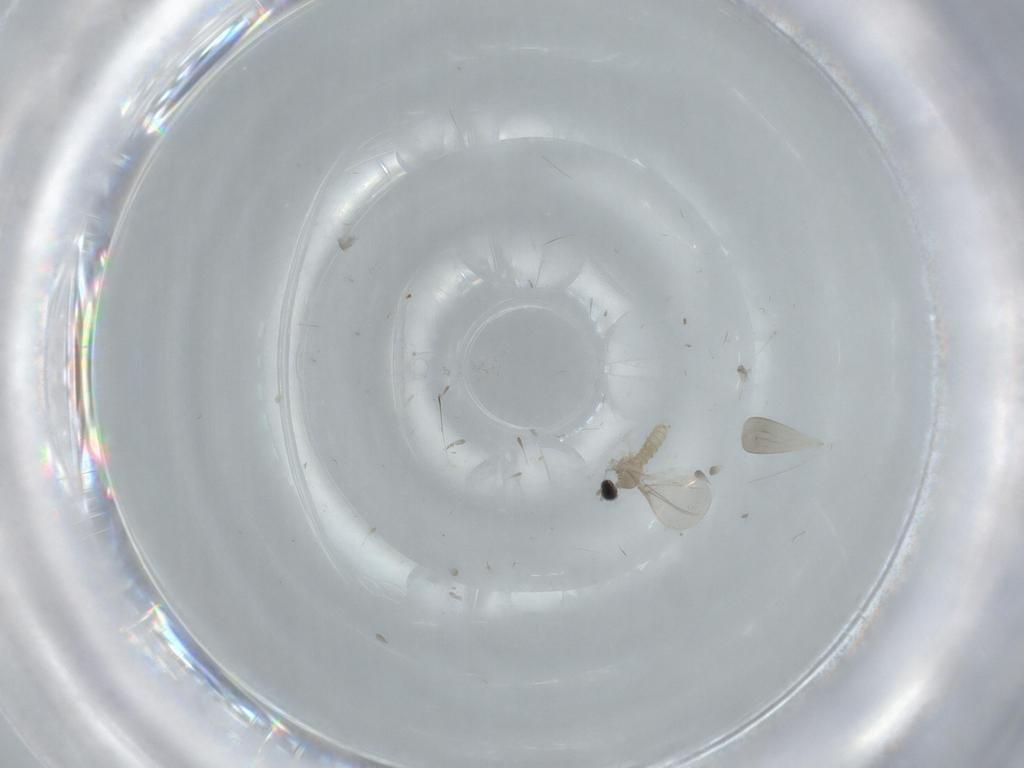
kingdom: Animalia
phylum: Arthropoda
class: Insecta
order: Diptera
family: Cecidomyiidae
